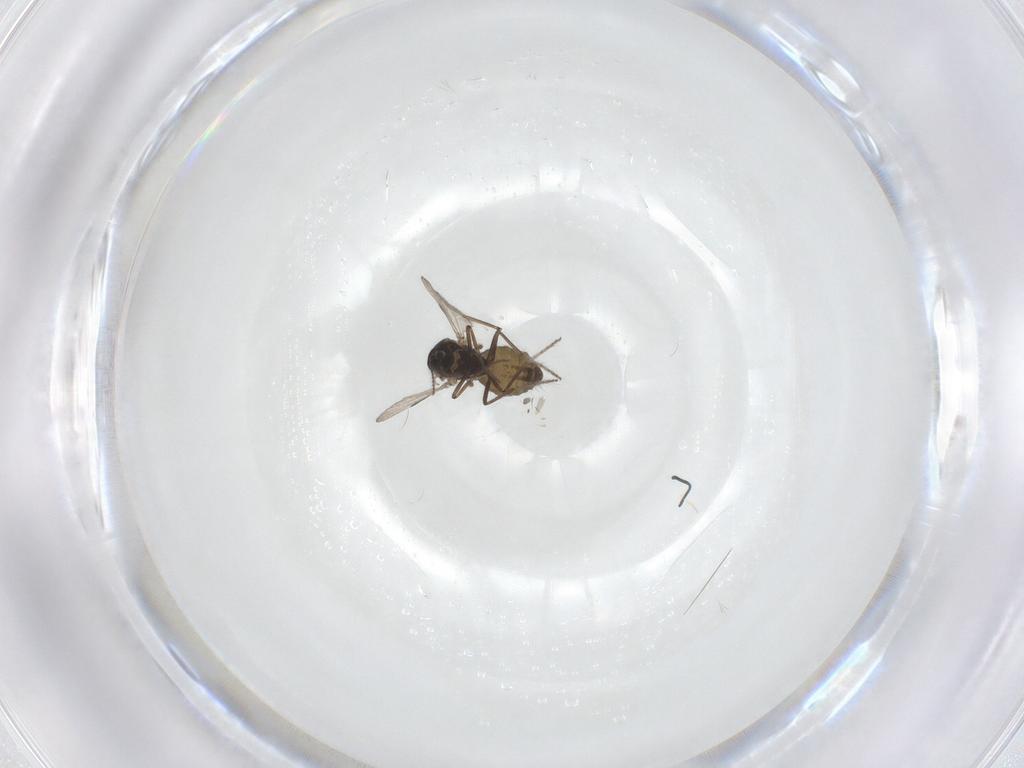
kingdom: Animalia
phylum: Arthropoda
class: Insecta
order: Diptera
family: Ceratopogonidae
